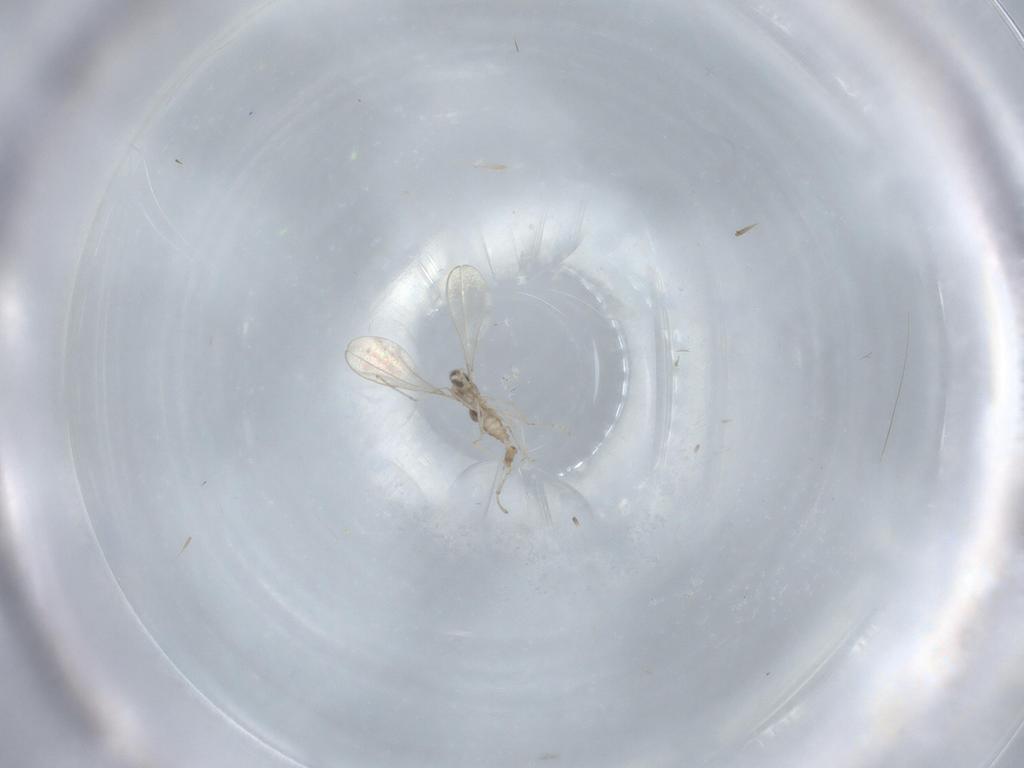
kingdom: Animalia
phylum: Arthropoda
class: Insecta
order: Diptera
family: Cecidomyiidae
